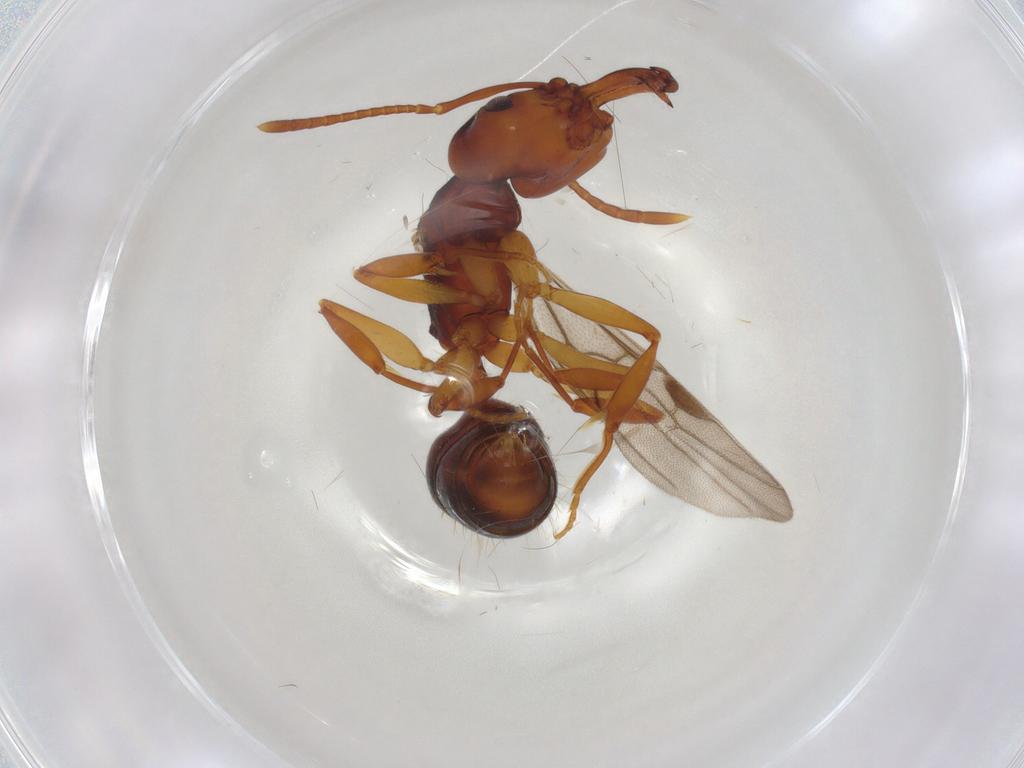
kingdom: Animalia
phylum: Arthropoda
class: Insecta
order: Hymenoptera
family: Formicidae
